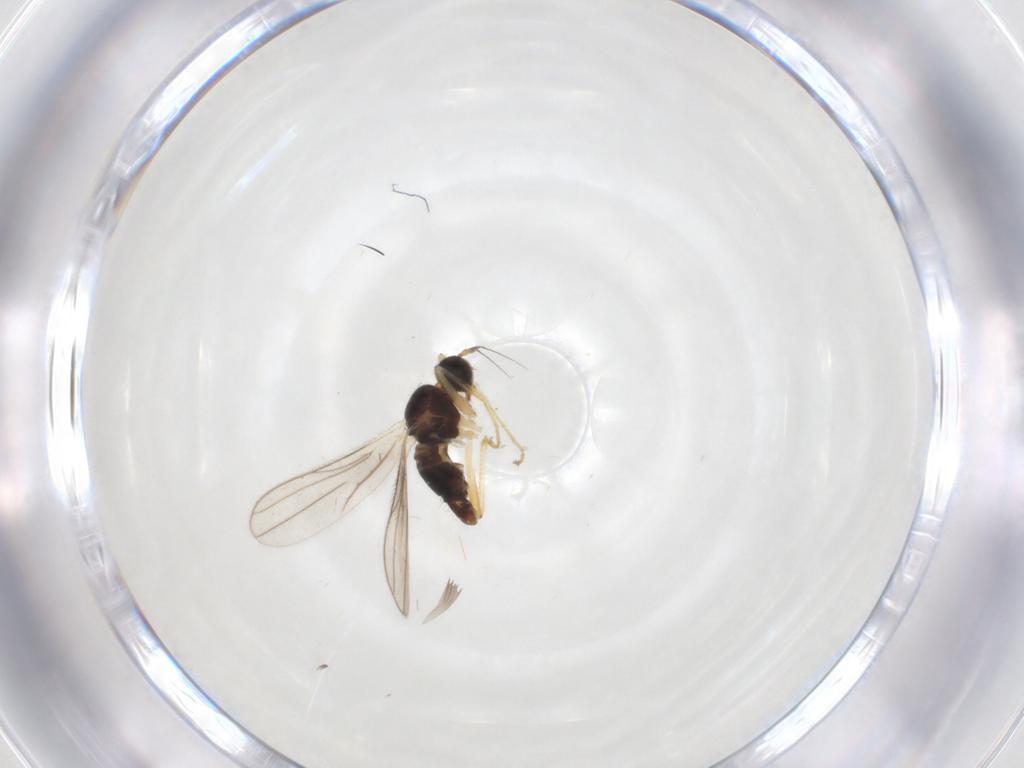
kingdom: Animalia
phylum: Arthropoda
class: Insecta
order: Diptera
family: Hybotidae
